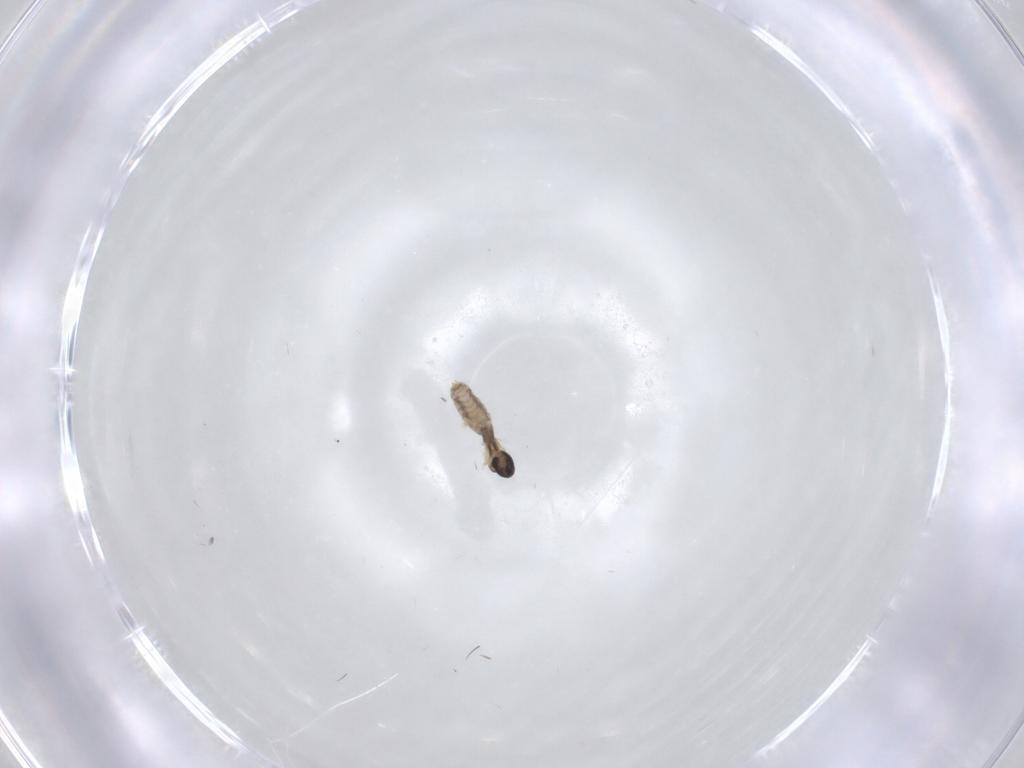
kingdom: Animalia
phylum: Arthropoda
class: Insecta
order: Diptera
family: Cecidomyiidae
